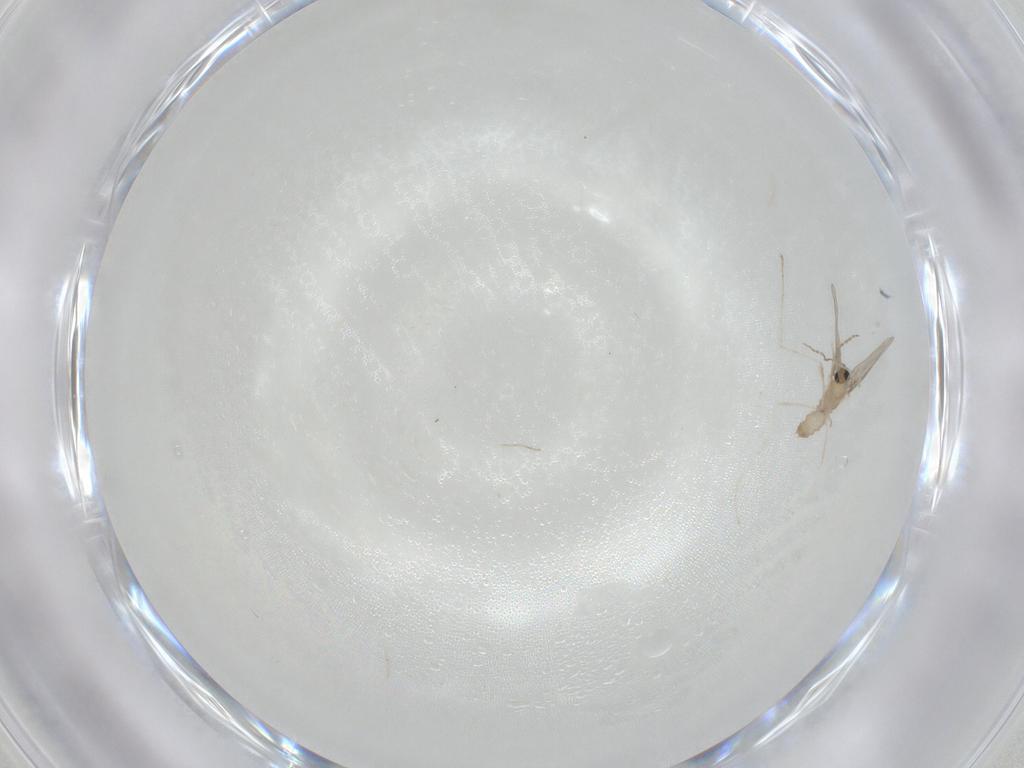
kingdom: Animalia
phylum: Arthropoda
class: Insecta
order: Diptera
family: Cecidomyiidae
